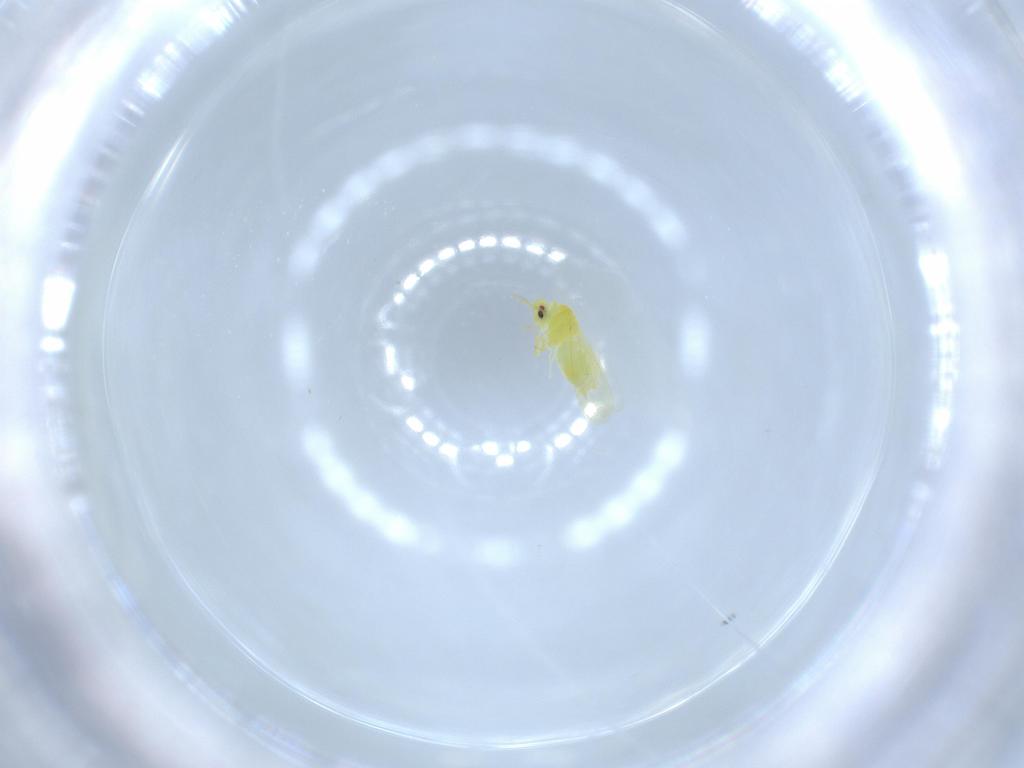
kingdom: Animalia
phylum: Arthropoda
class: Insecta
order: Hemiptera
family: Aleyrodidae
